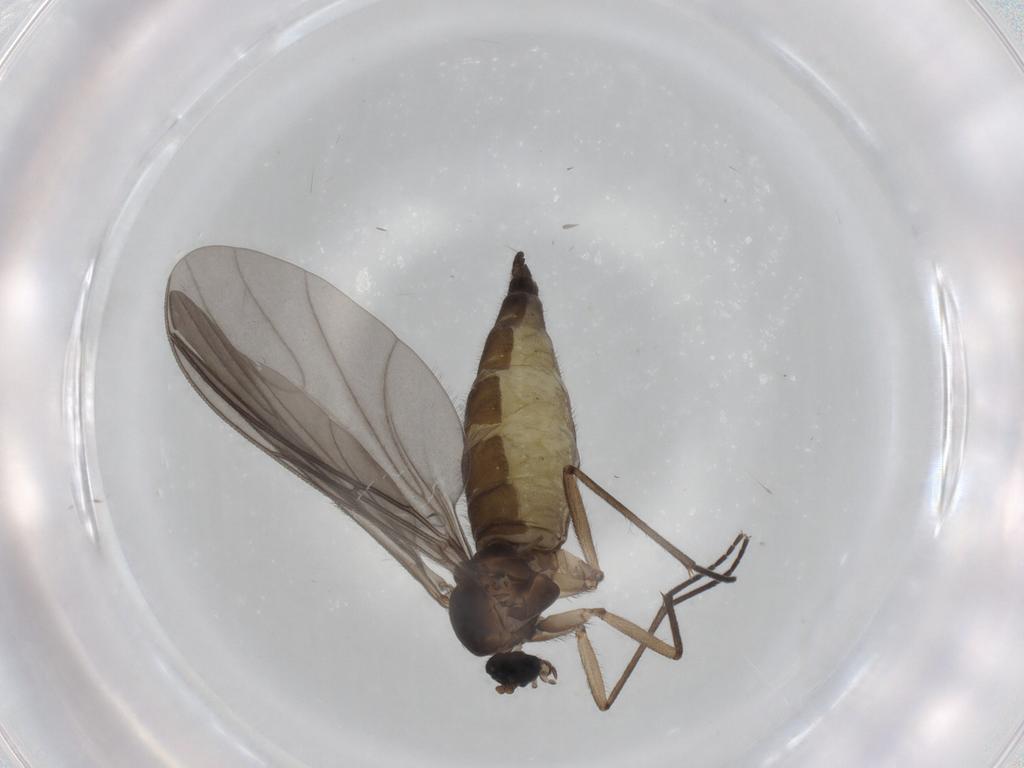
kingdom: Animalia
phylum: Arthropoda
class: Insecta
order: Diptera
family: Sciaridae
